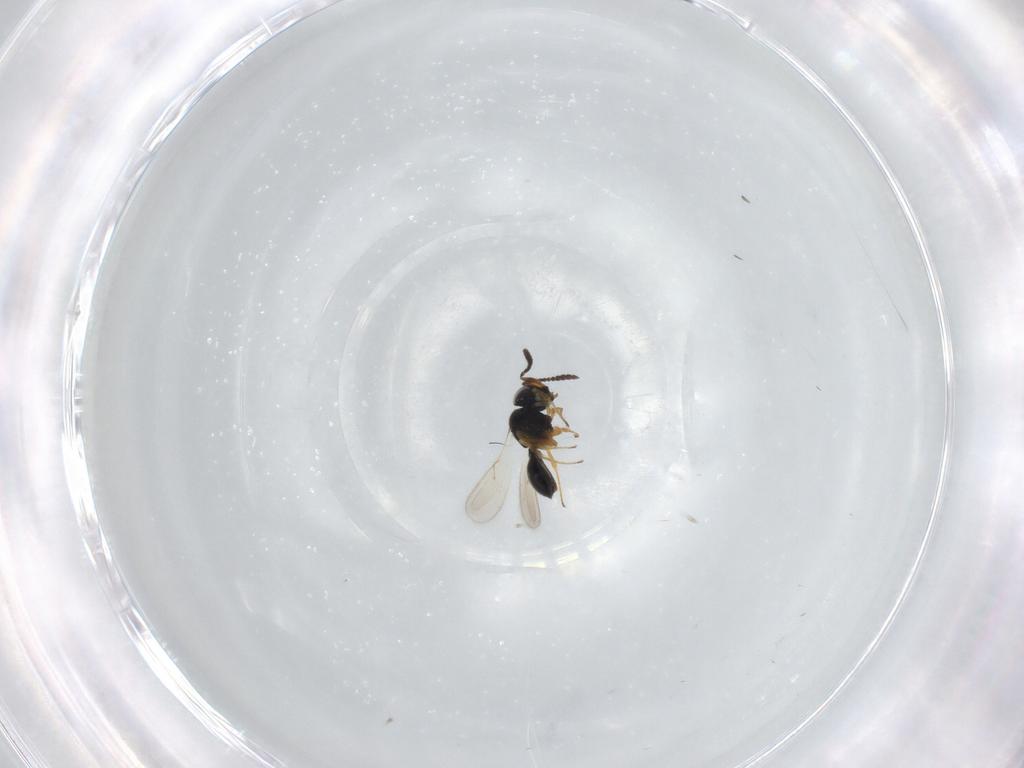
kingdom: Animalia
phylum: Arthropoda
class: Insecta
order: Hymenoptera
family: Scelionidae
